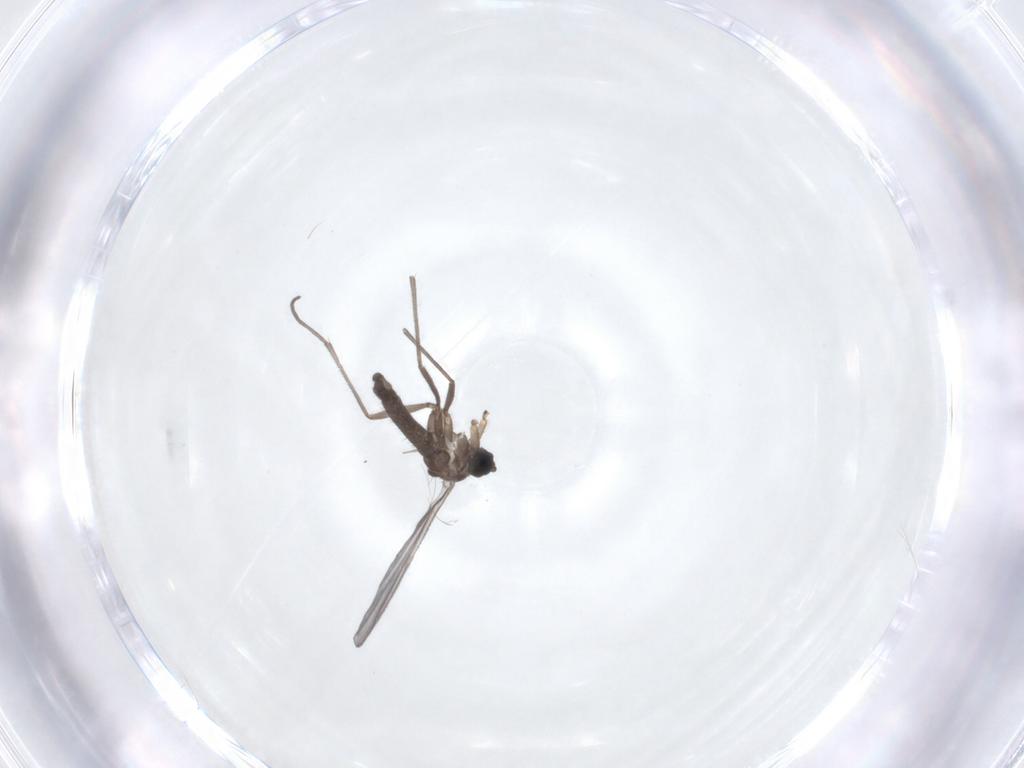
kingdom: Animalia
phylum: Arthropoda
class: Insecta
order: Diptera
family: Sciaridae
